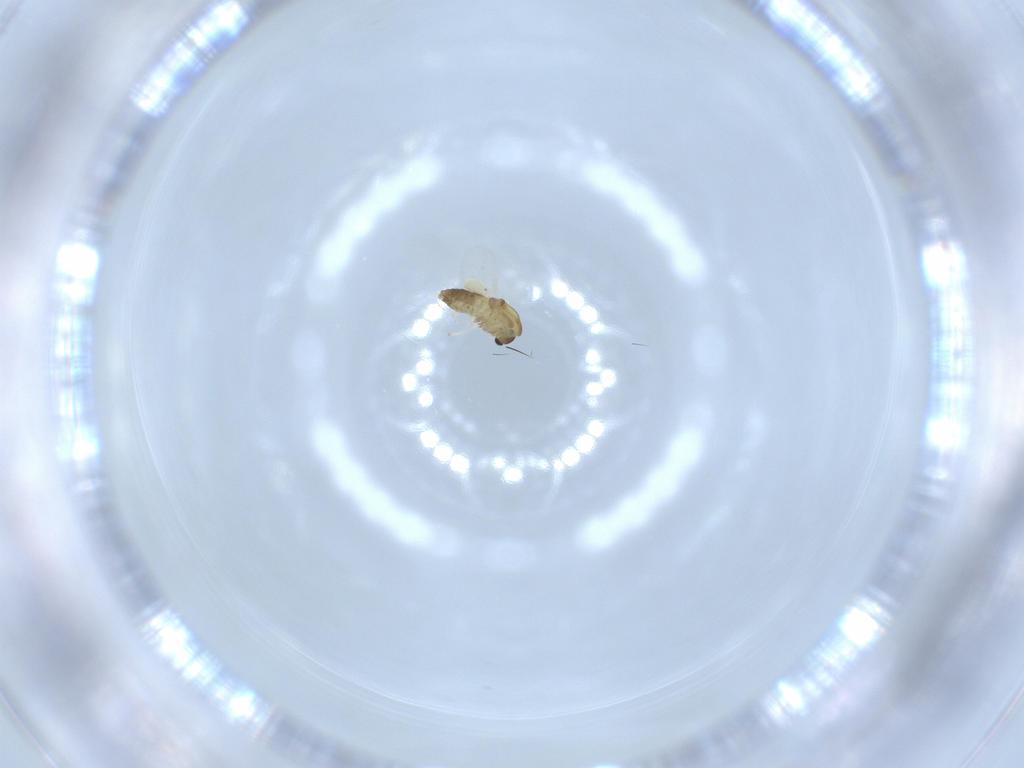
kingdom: Animalia
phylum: Arthropoda
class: Insecta
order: Diptera
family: Chironomidae
